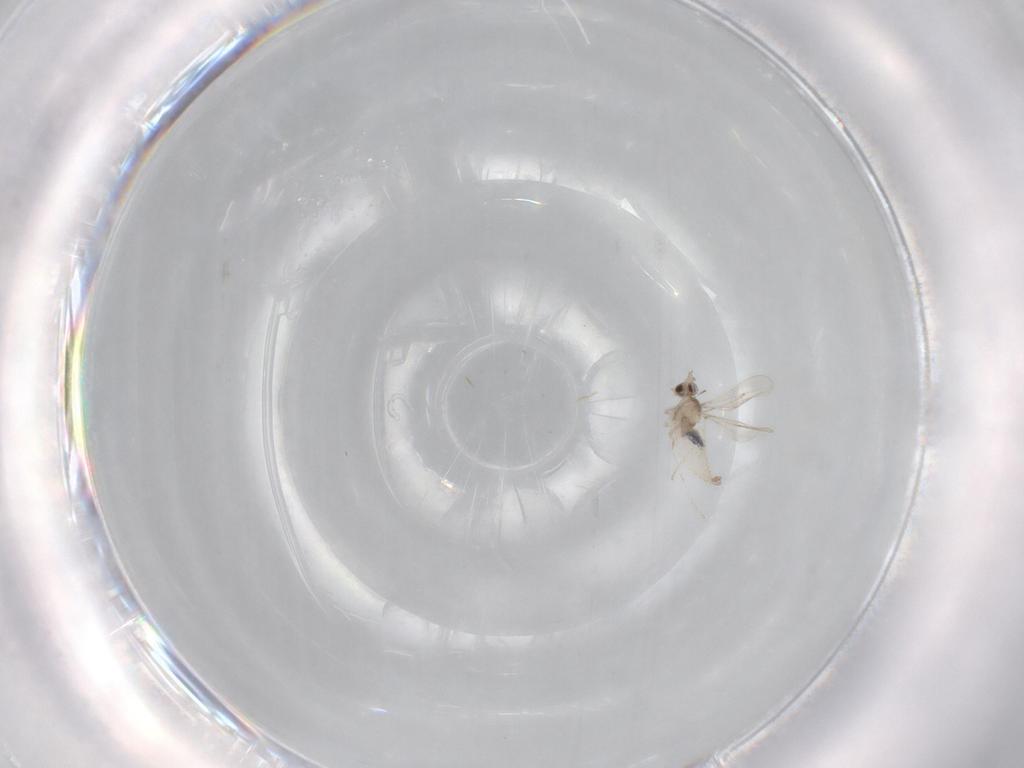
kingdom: Animalia
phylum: Arthropoda
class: Insecta
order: Diptera
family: Cecidomyiidae
